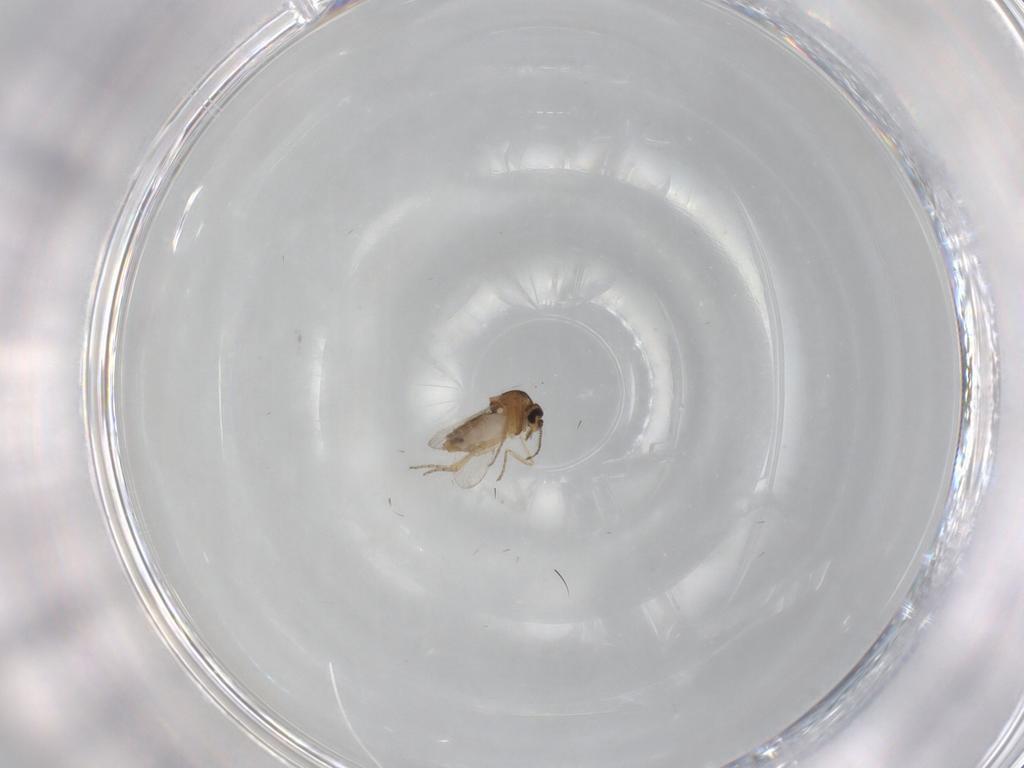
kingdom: Animalia
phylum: Arthropoda
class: Insecta
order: Diptera
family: Ceratopogonidae
